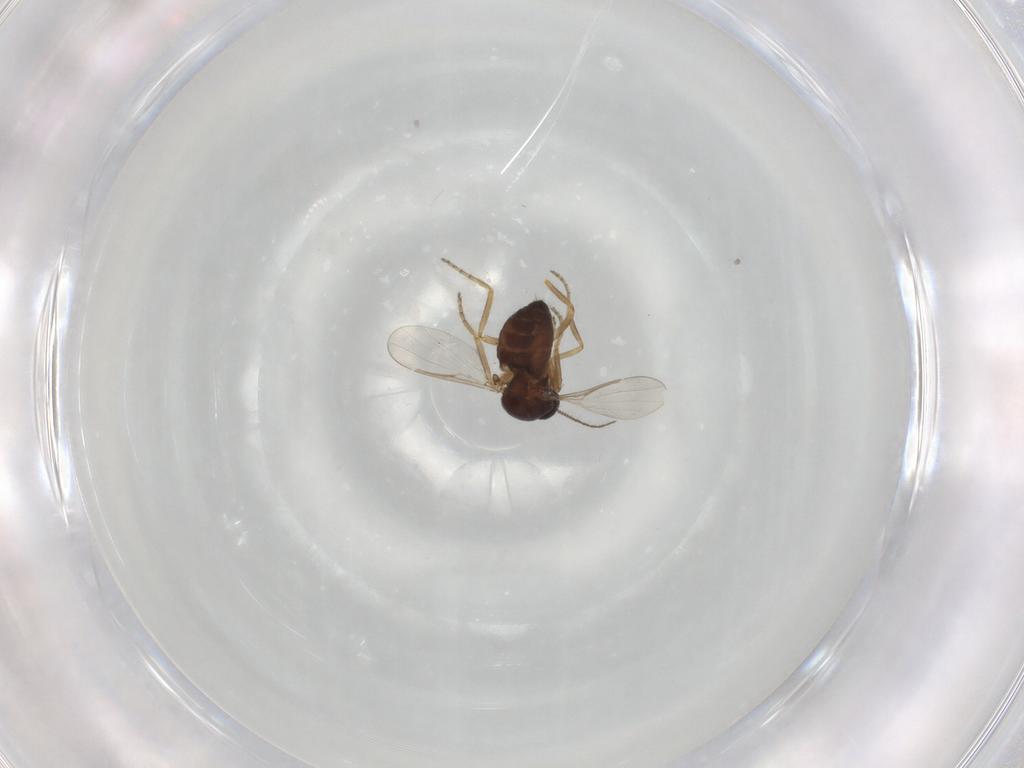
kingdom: Animalia
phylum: Arthropoda
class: Insecta
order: Diptera
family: Ceratopogonidae
